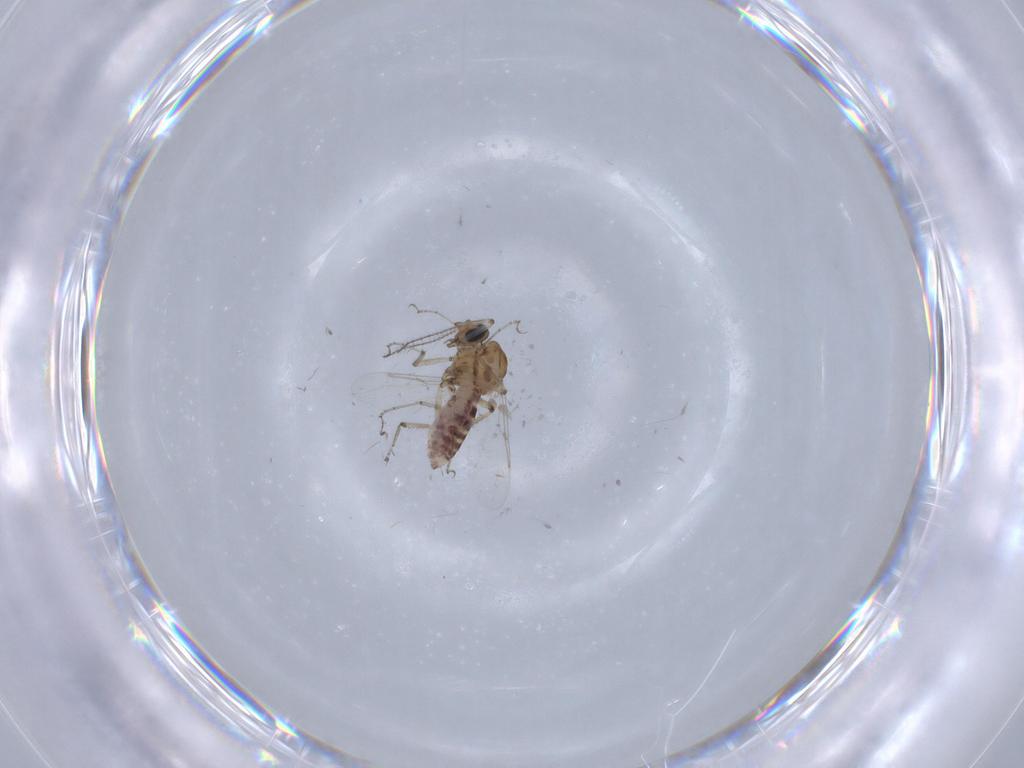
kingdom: Animalia
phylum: Arthropoda
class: Insecta
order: Diptera
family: Ceratopogonidae
